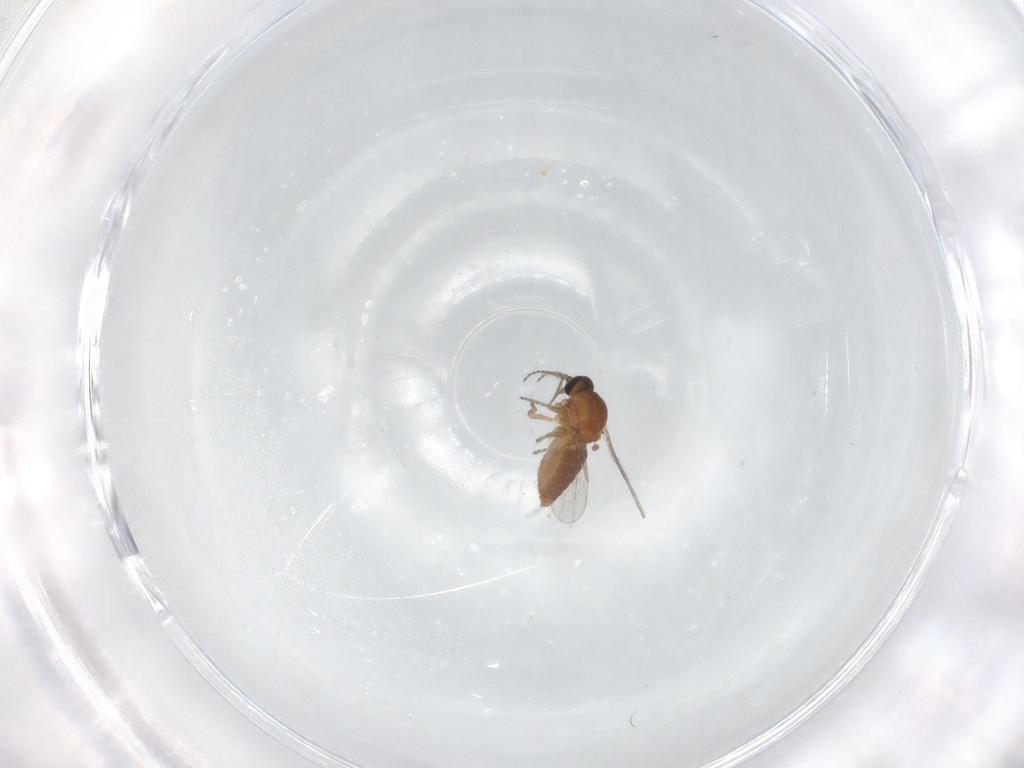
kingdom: Animalia
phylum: Arthropoda
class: Insecta
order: Diptera
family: Ceratopogonidae
